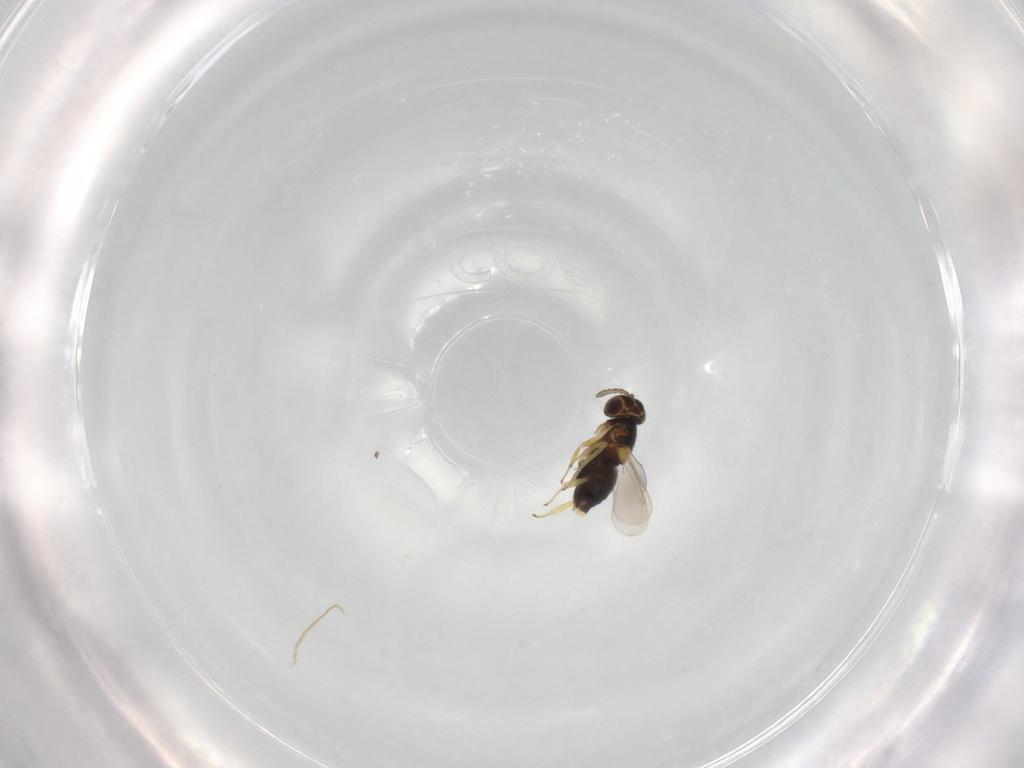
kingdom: Animalia
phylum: Arthropoda
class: Insecta
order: Hymenoptera
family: Aphelinidae
